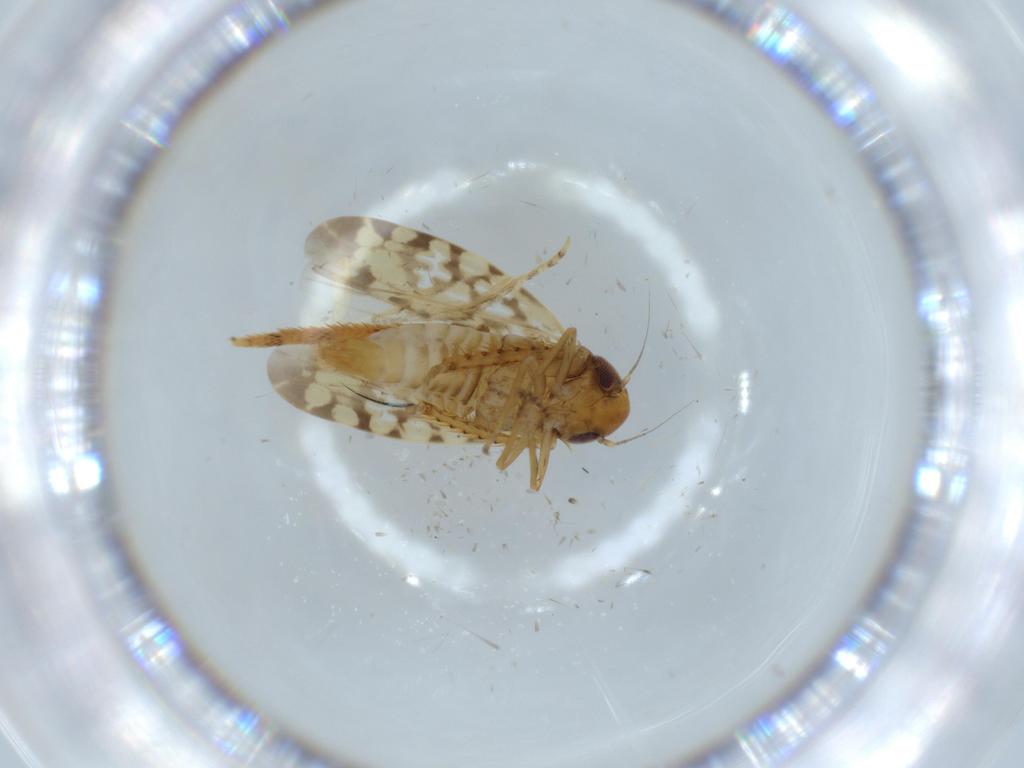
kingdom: Animalia
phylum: Arthropoda
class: Insecta
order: Hemiptera
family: Cicadellidae
